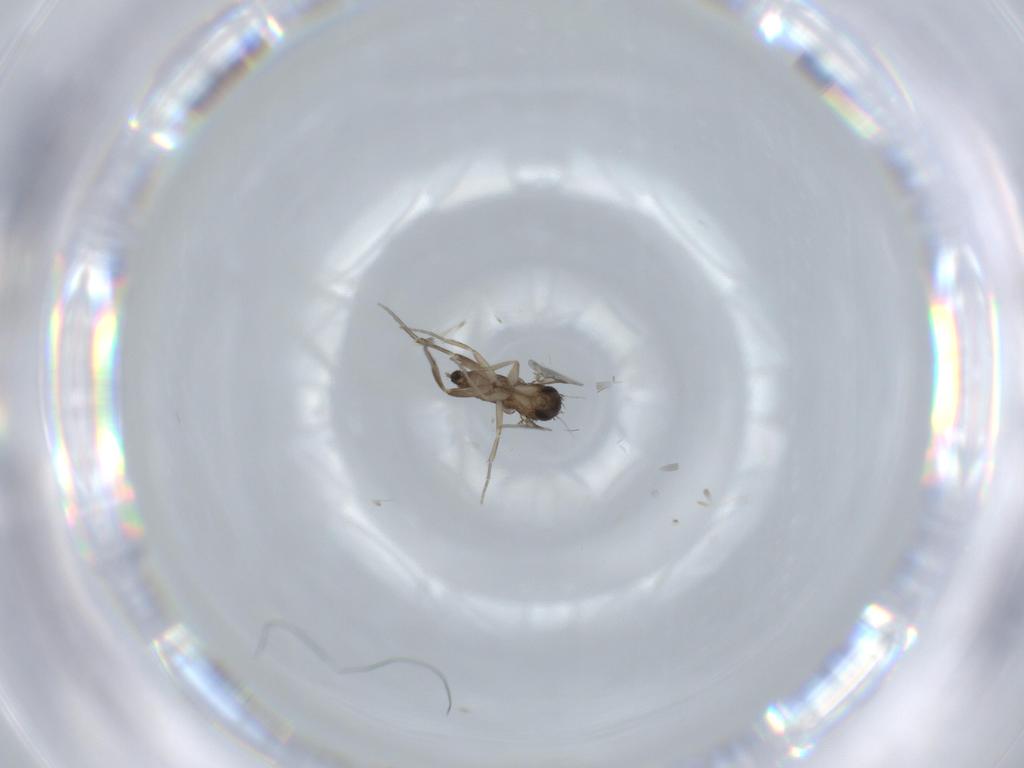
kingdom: Animalia
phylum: Arthropoda
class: Insecta
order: Diptera
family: Phoridae
